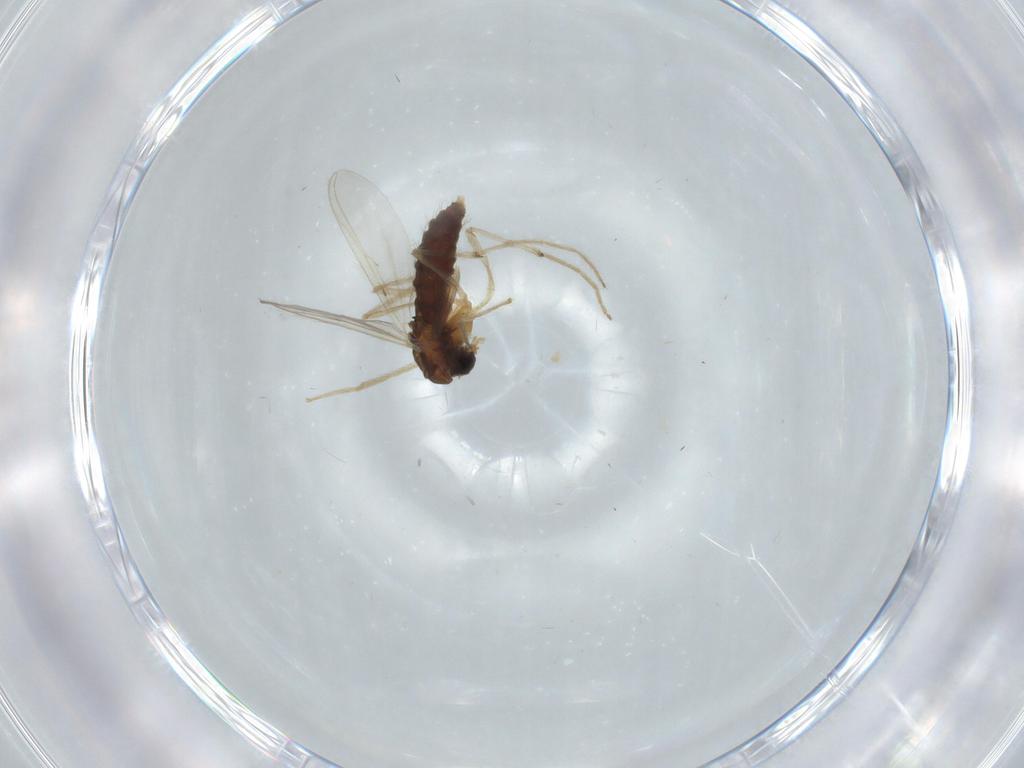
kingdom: Animalia
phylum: Arthropoda
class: Insecta
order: Diptera
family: Chironomidae
